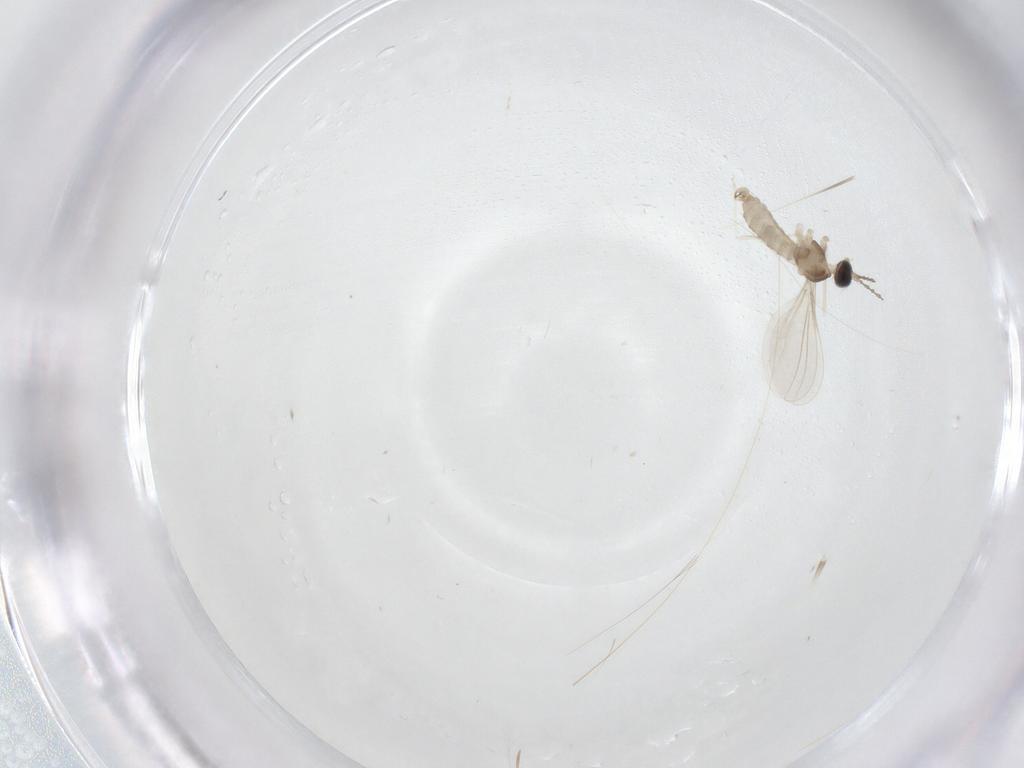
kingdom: Animalia
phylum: Arthropoda
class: Insecta
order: Diptera
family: Cecidomyiidae
